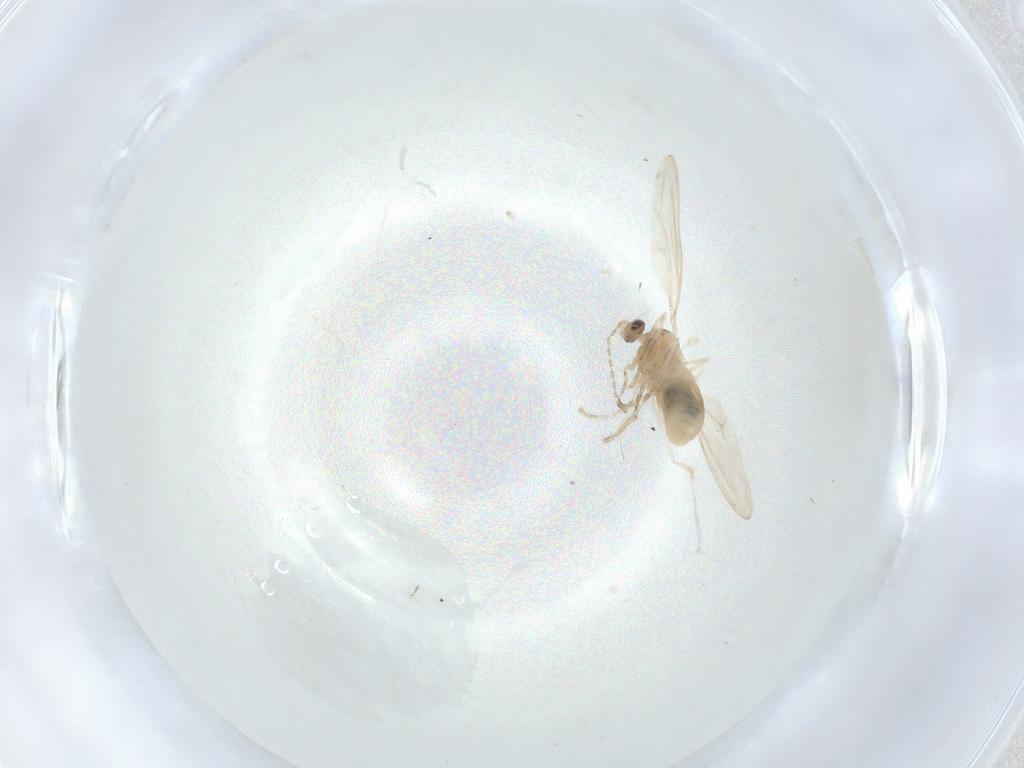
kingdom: Animalia
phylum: Arthropoda
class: Insecta
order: Diptera
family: Cecidomyiidae
